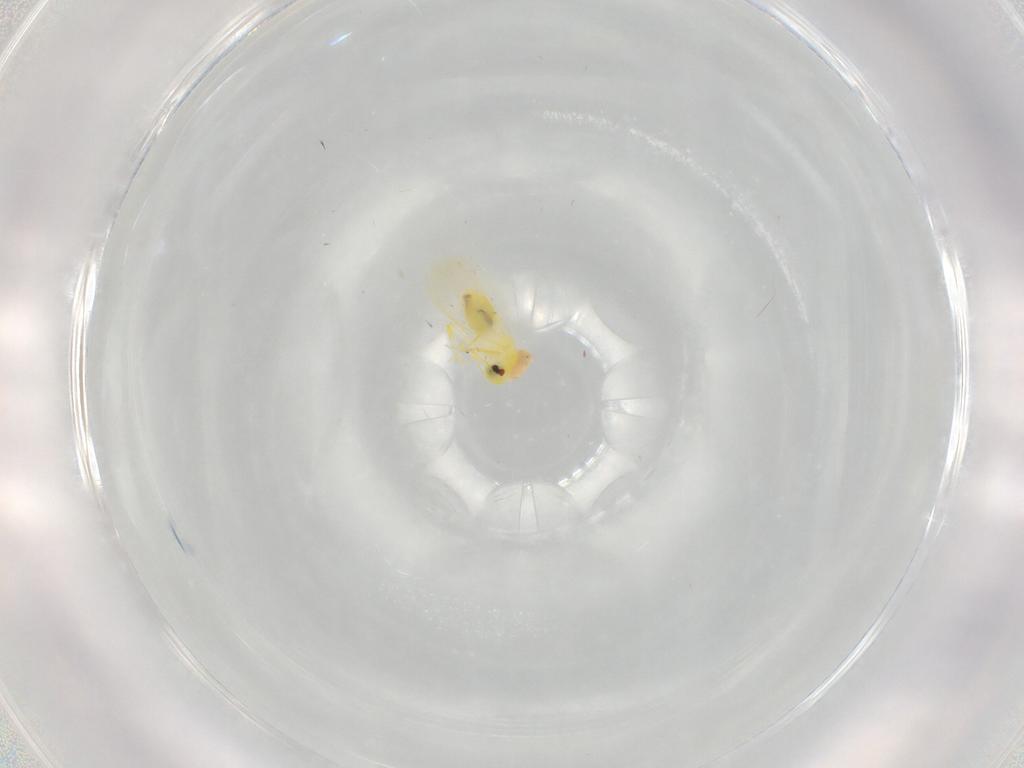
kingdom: Animalia
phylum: Arthropoda
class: Insecta
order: Hemiptera
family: Aleyrodidae
